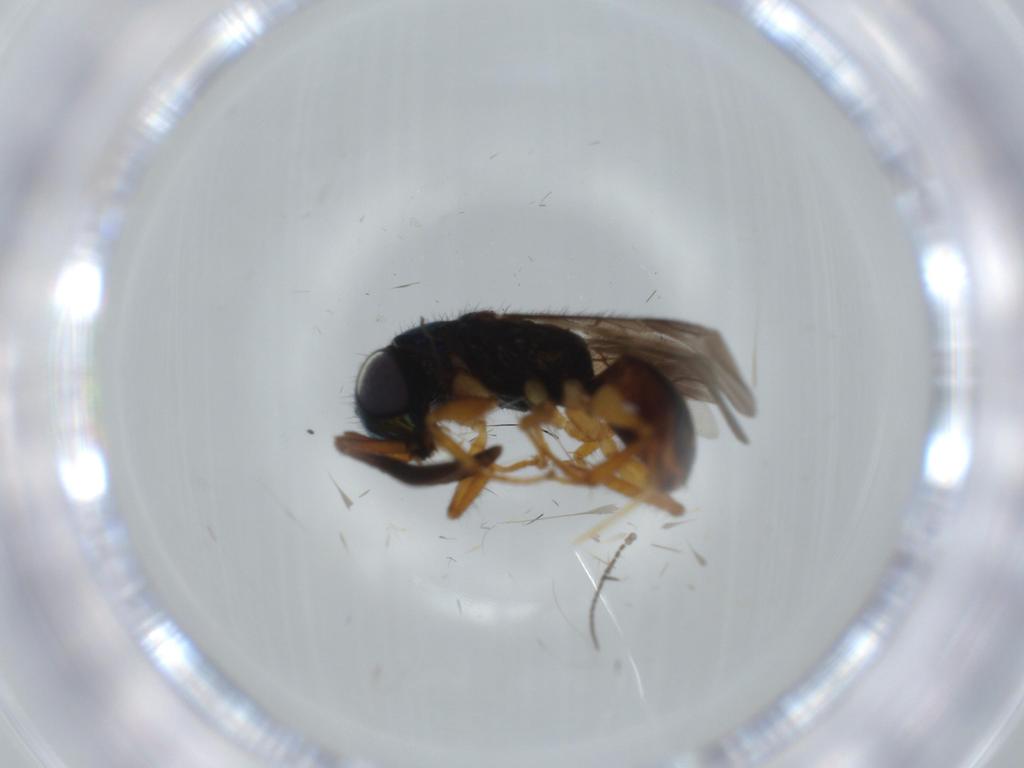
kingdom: Animalia
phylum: Arthropoda
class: Insecta
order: Hymenoptera
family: Chrysididae
